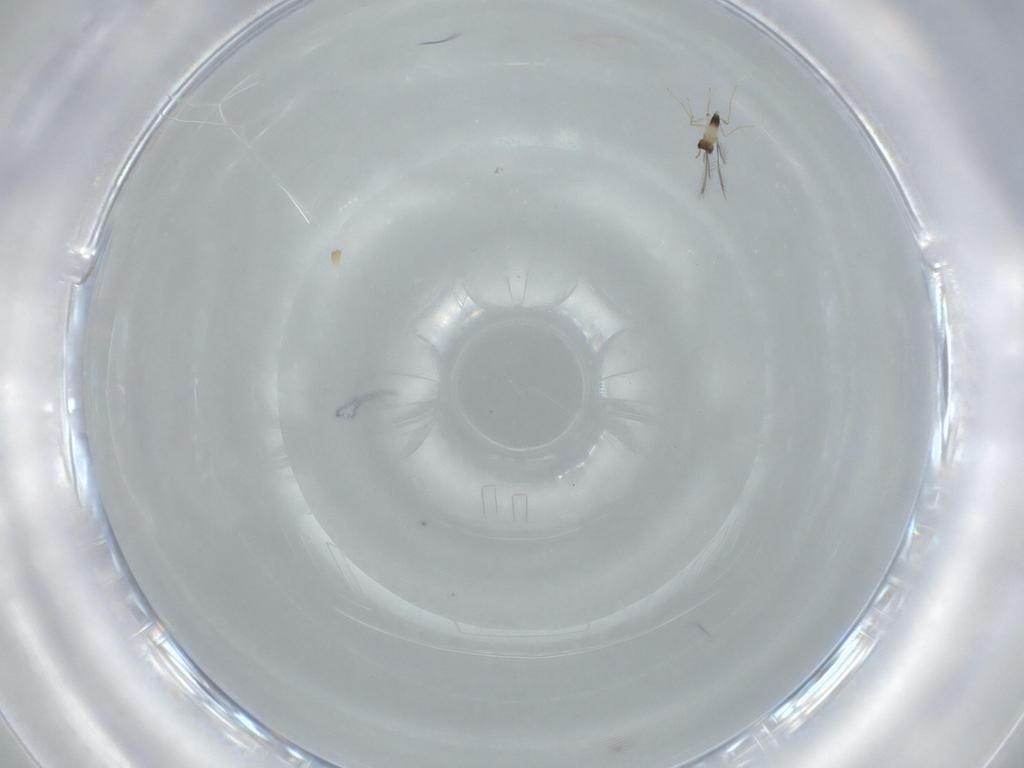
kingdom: Animalia
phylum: Arthropoda
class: Insecta
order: Hymenoptera
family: Mymaridae
